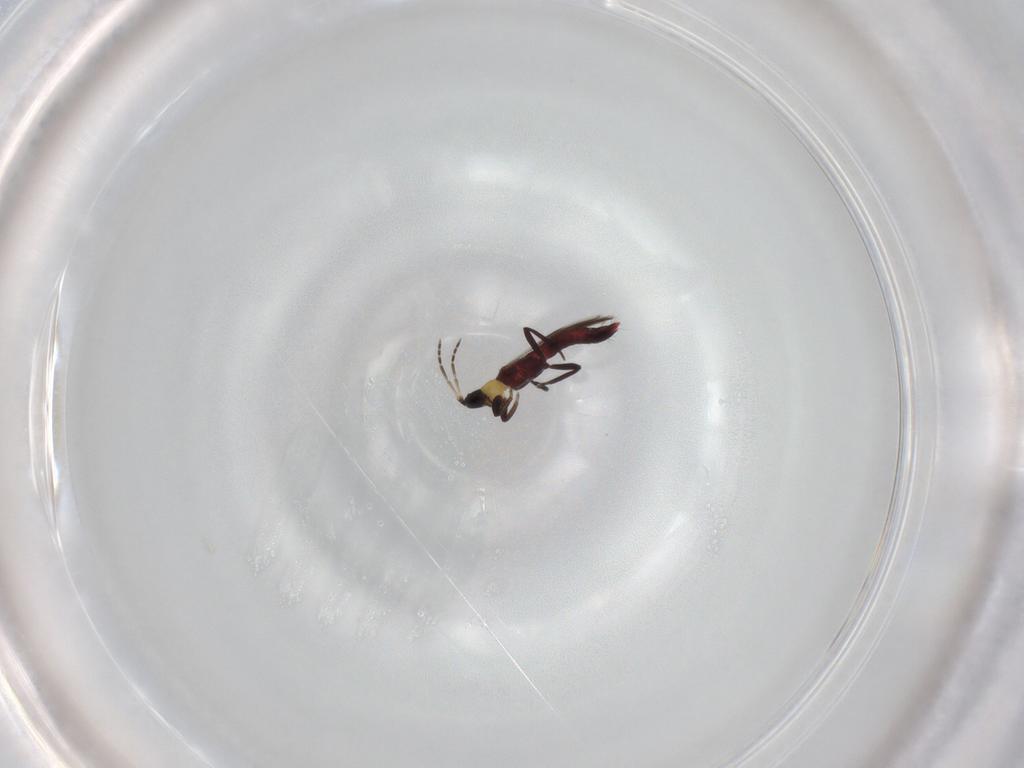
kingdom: Animalia
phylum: Arthropoda
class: Insecta
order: Thysanoptera
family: Aeolothripidae
